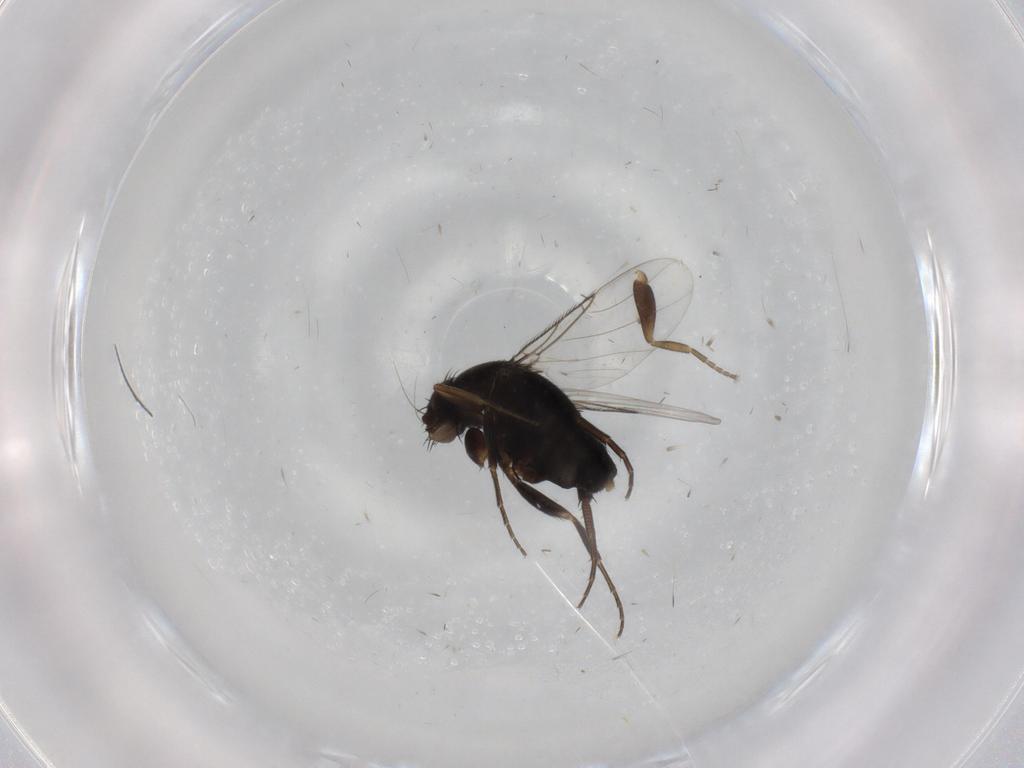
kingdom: Animalia
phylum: Arthropoda
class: Insecta
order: Diptera
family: Phoridae
